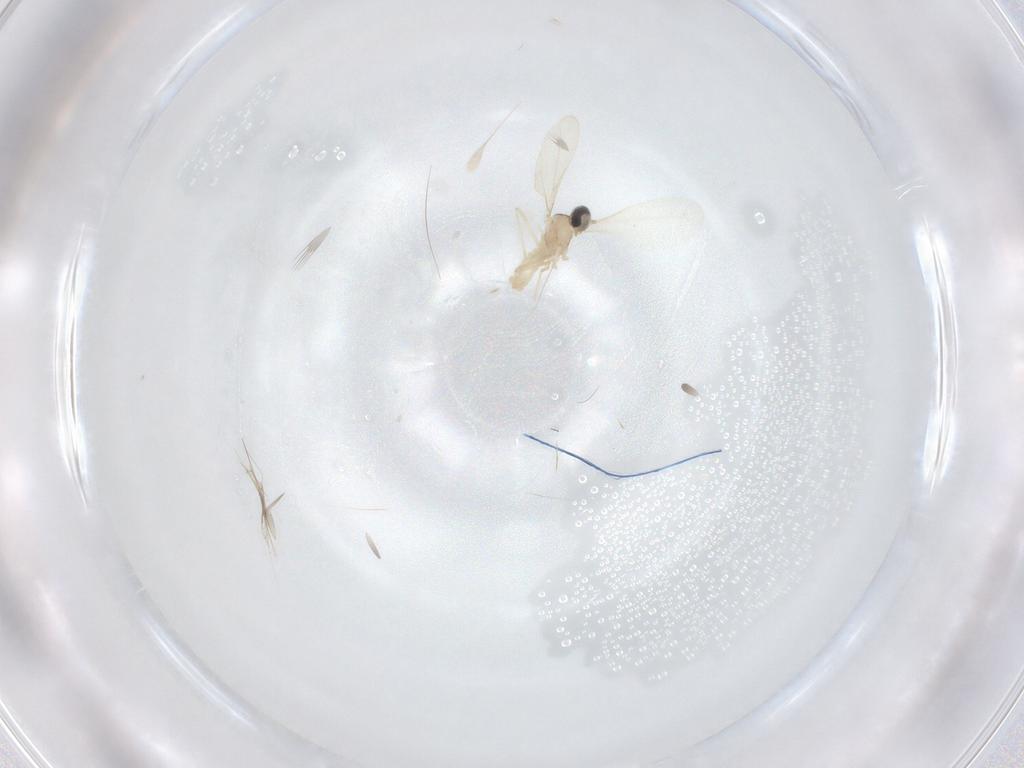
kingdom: Animalia
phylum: Arthropoda
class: Insecta
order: Diptera
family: Cecidomyiidae
